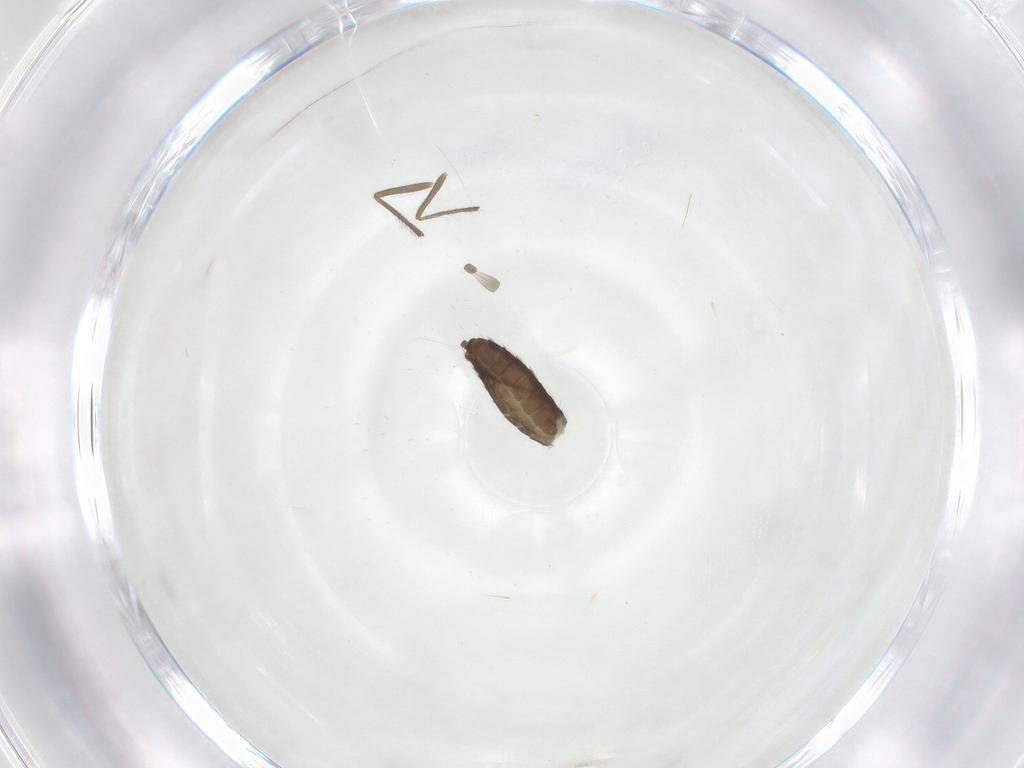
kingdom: Animalia
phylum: Arthropoda
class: Insecta
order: Diptera
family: Chironomidae
